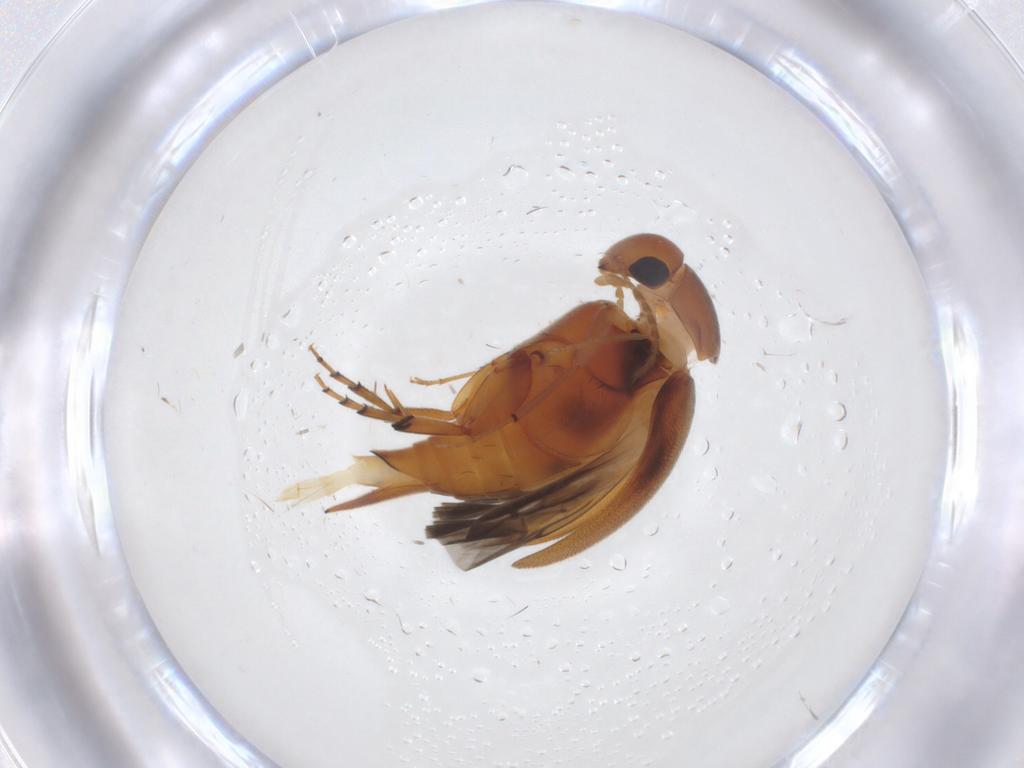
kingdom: Animalia
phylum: Arthropoda
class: Insecta
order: Coleoptera
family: Mordellidae
